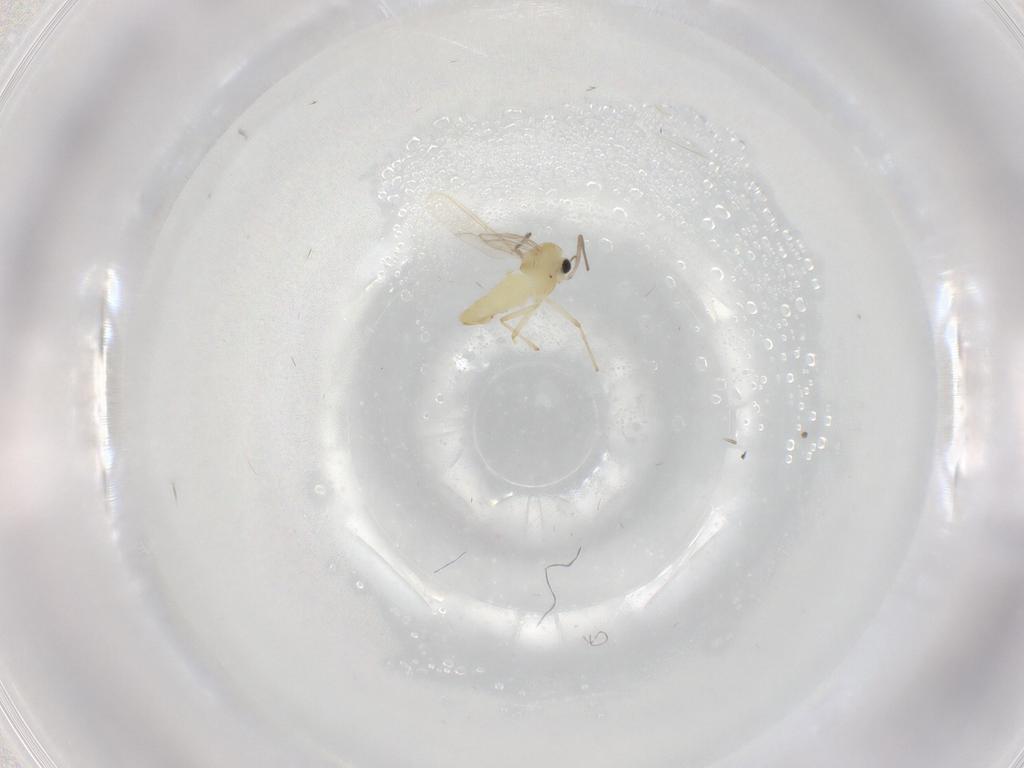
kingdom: Animalia
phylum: Arthropoda
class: Insecta
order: Diptera
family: Chironomidae
